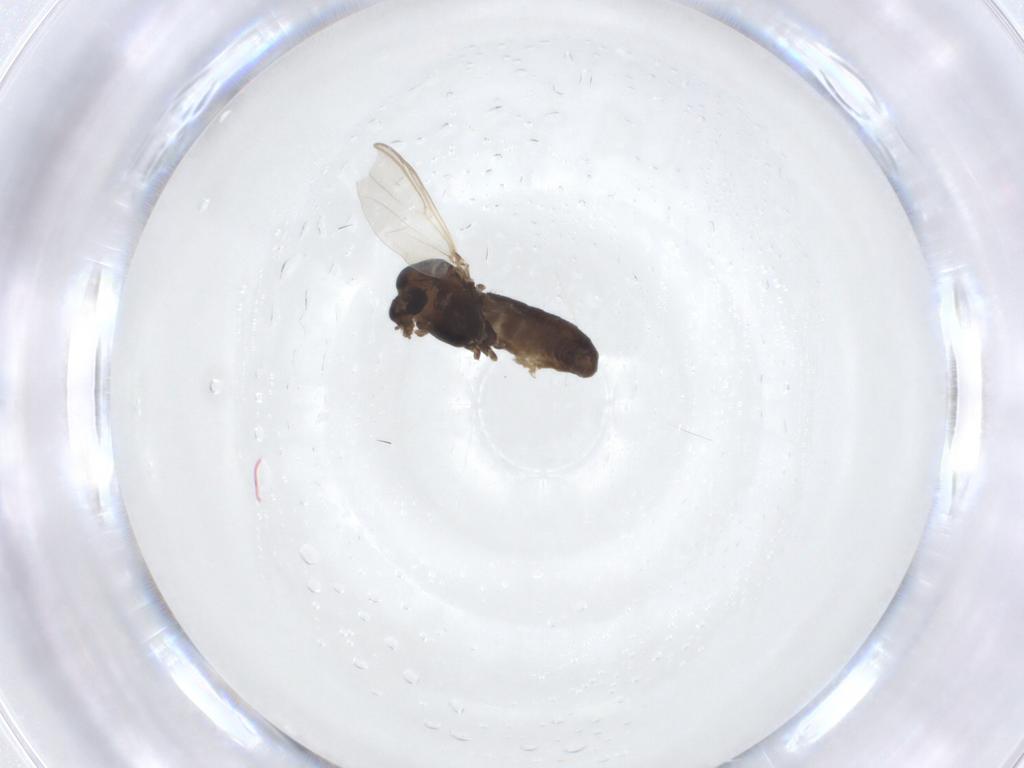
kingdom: Animalia
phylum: Arthropoda
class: Insecta
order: Diptera
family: Chironomidae
